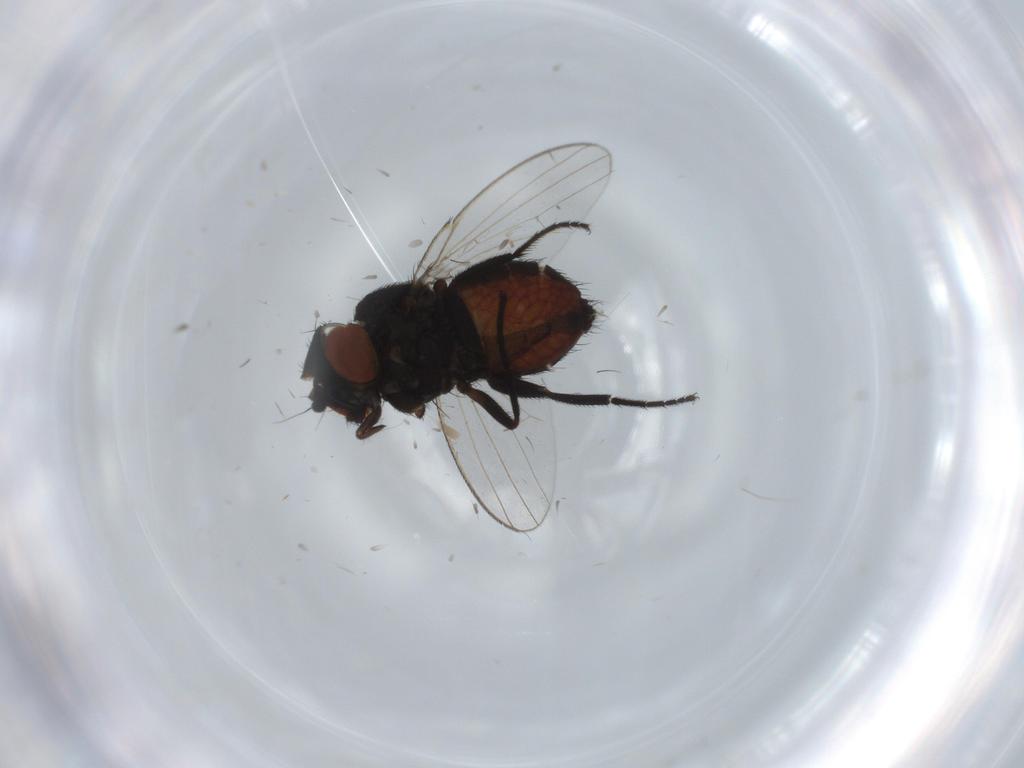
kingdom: Animalia
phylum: Arthropoda
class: Insecta
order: Diptera
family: Milichiidae
